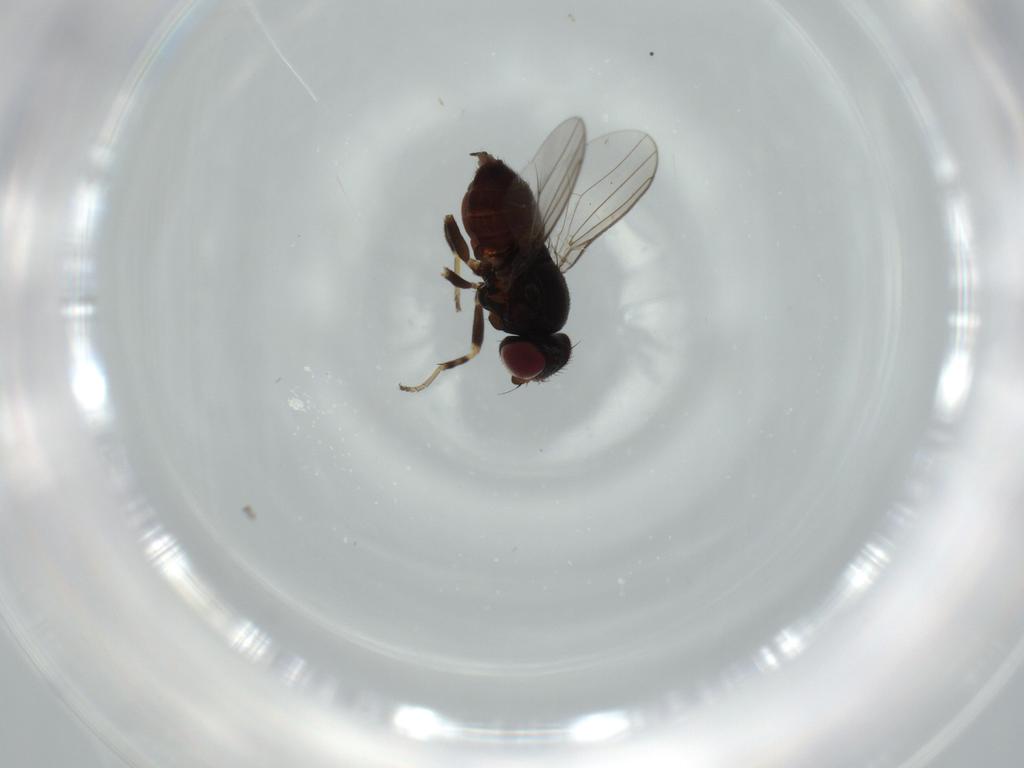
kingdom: Animalia
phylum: Arthropoda
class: Insecta
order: Diptera
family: Chloropidae
